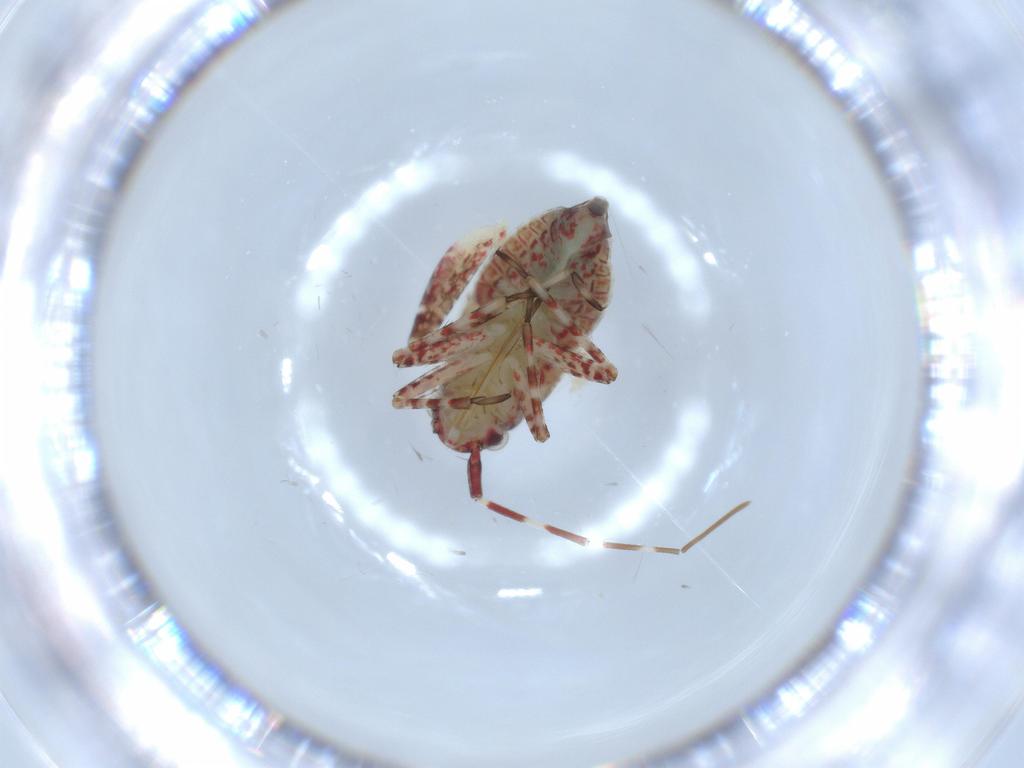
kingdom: Animalia
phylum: Arthropoda
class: Insecta
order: Hemiptera
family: Miridae
